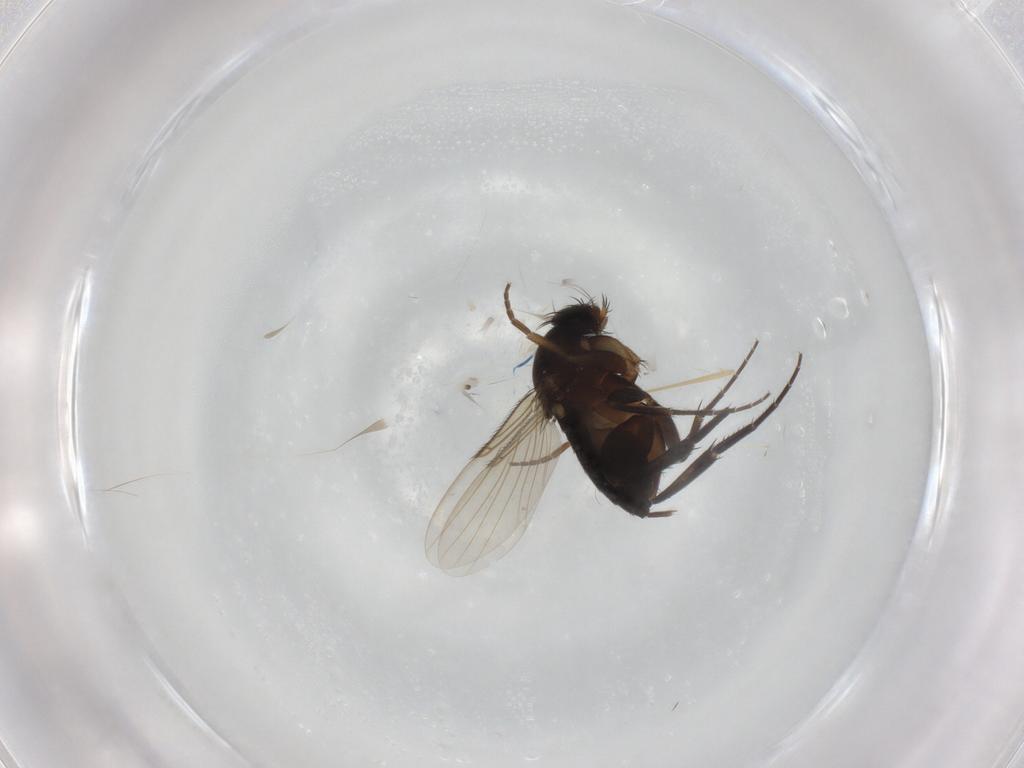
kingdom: Animalia
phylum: Arthropoda
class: Insecta
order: Diptera
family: Phoridae
